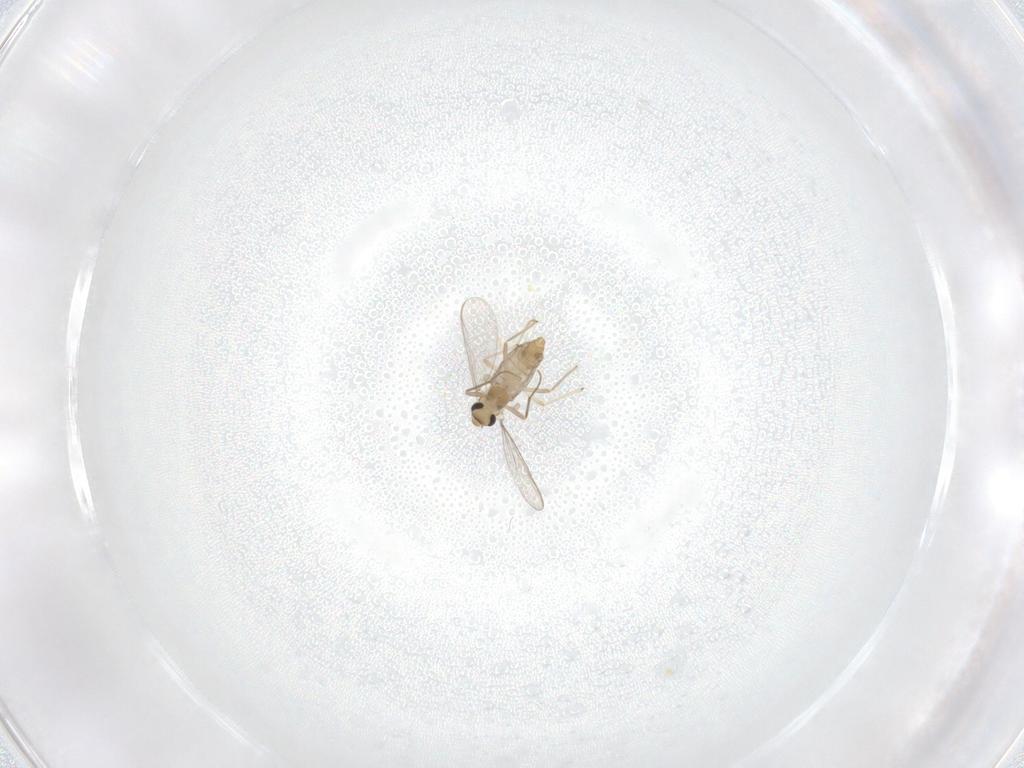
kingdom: Animalia
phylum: Arthropoda
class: Insecta
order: Diptera
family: Cecidomyiidae
